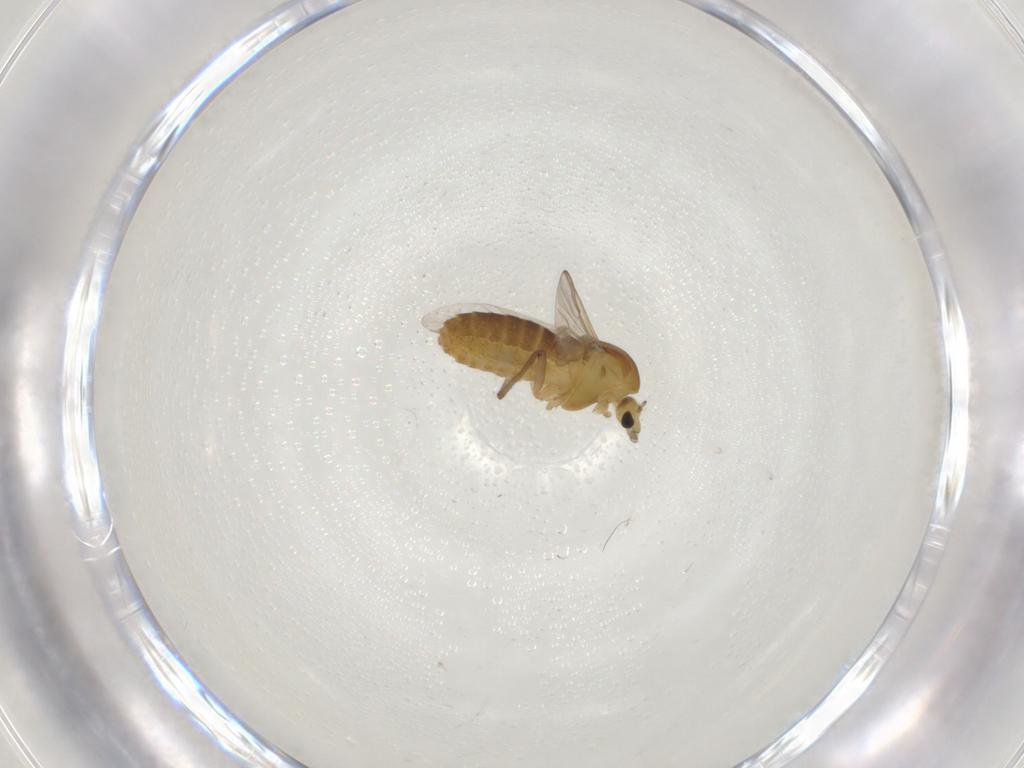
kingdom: Animalia
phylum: Arthropoda
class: Insecta
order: Diptera
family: Chironomidae
